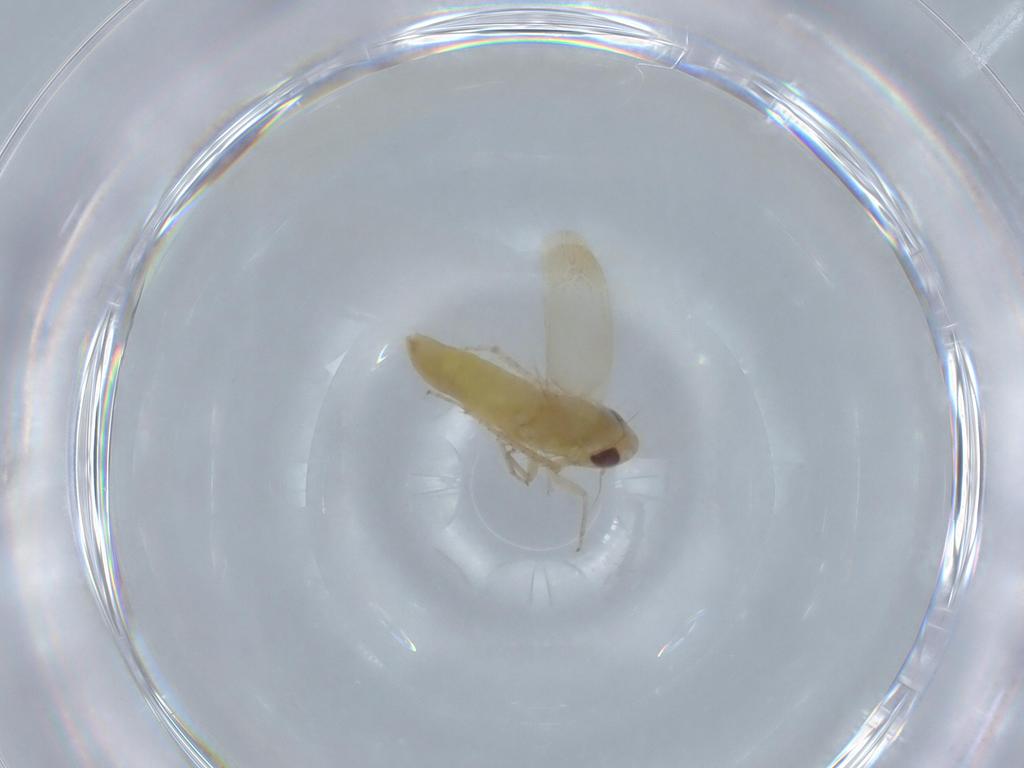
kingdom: Animalia
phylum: Arthropoda
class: Insecta
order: Hemiptera
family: Cicadellidae
